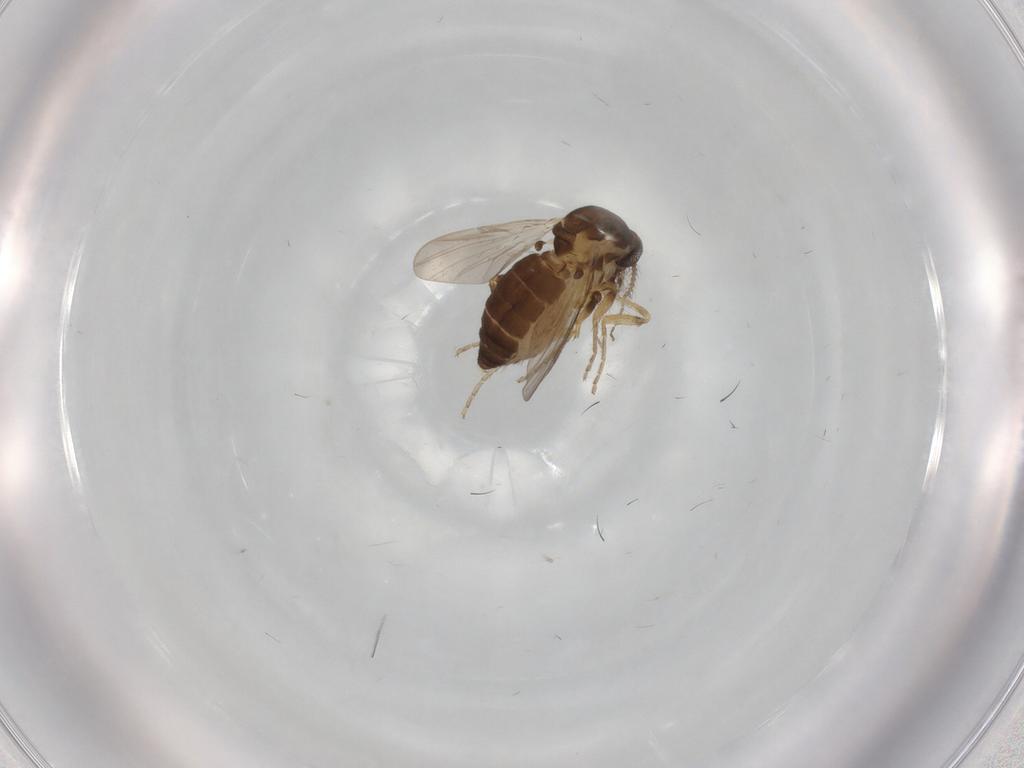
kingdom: Animalia
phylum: Arthropoda
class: Insecta
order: Diptera
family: Ceratopogonidae
